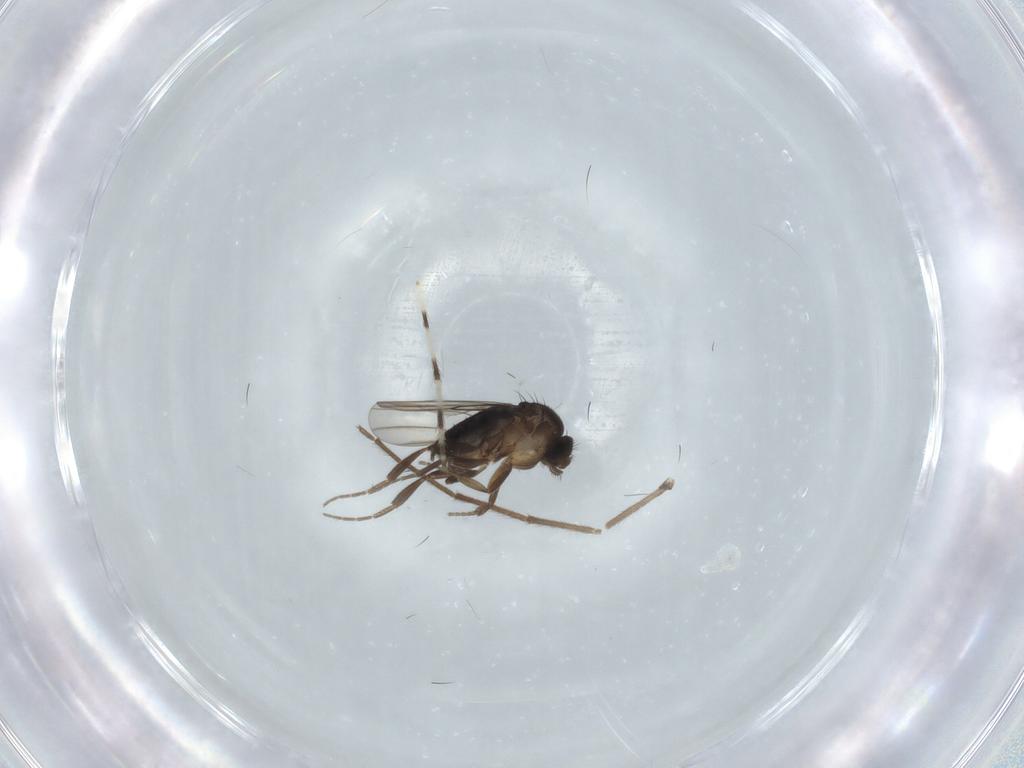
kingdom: Animalia
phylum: Arthropoda
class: Insecta
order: Diptera
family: Chironomidae
